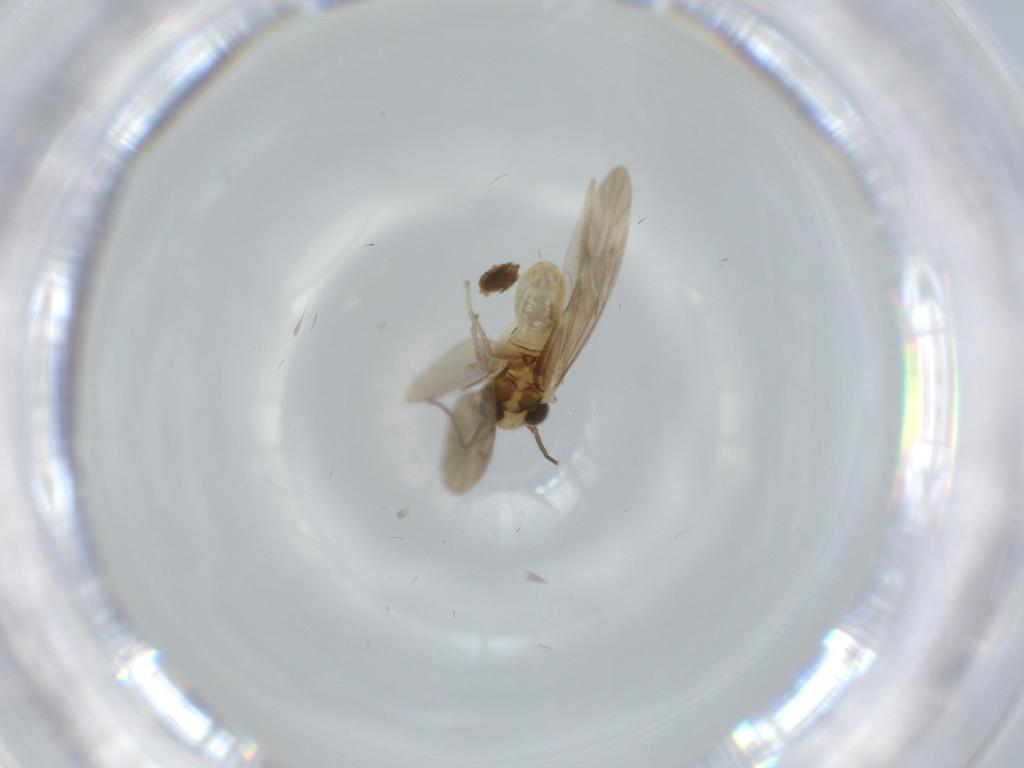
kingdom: Animalia
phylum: Arthropoda
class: Insecta
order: Psocodea
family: Caeciliusidae
